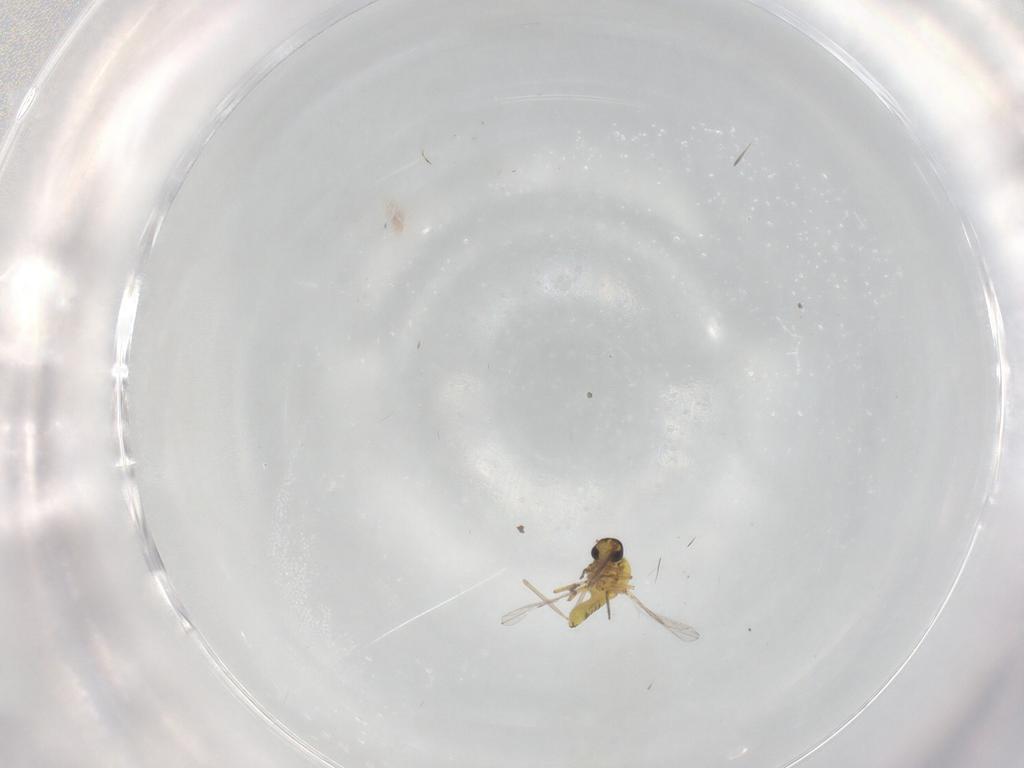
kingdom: Animalia
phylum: Arthropoda
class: Insecta
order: Diptera
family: Ceratopogonidae
